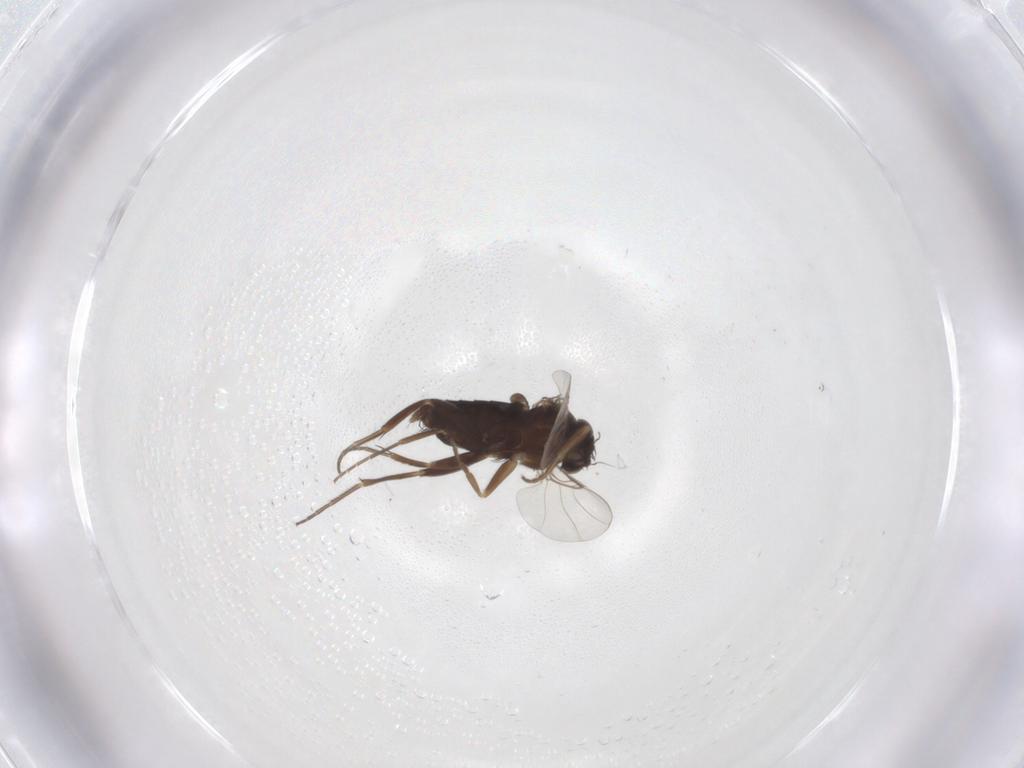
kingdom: Animalia
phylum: Arthropoda
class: Insecta
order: Diptera
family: Phoridae
